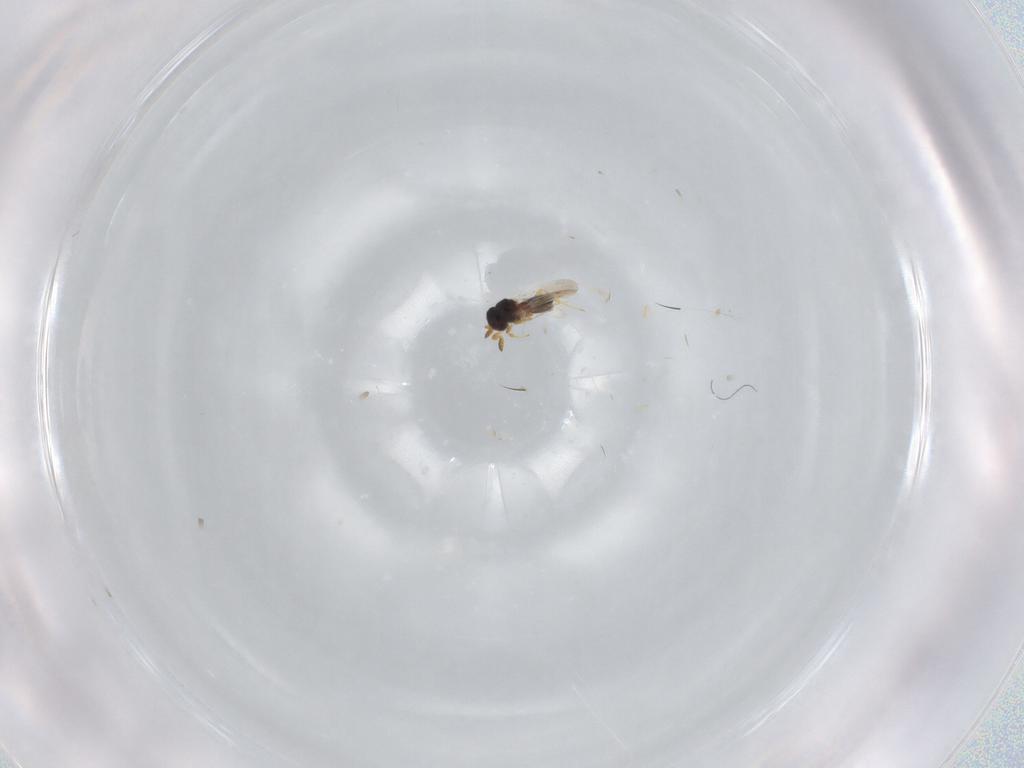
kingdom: Animalia
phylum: Arthropoda
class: Insecta
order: Hymenoptera
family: Platygastridae
